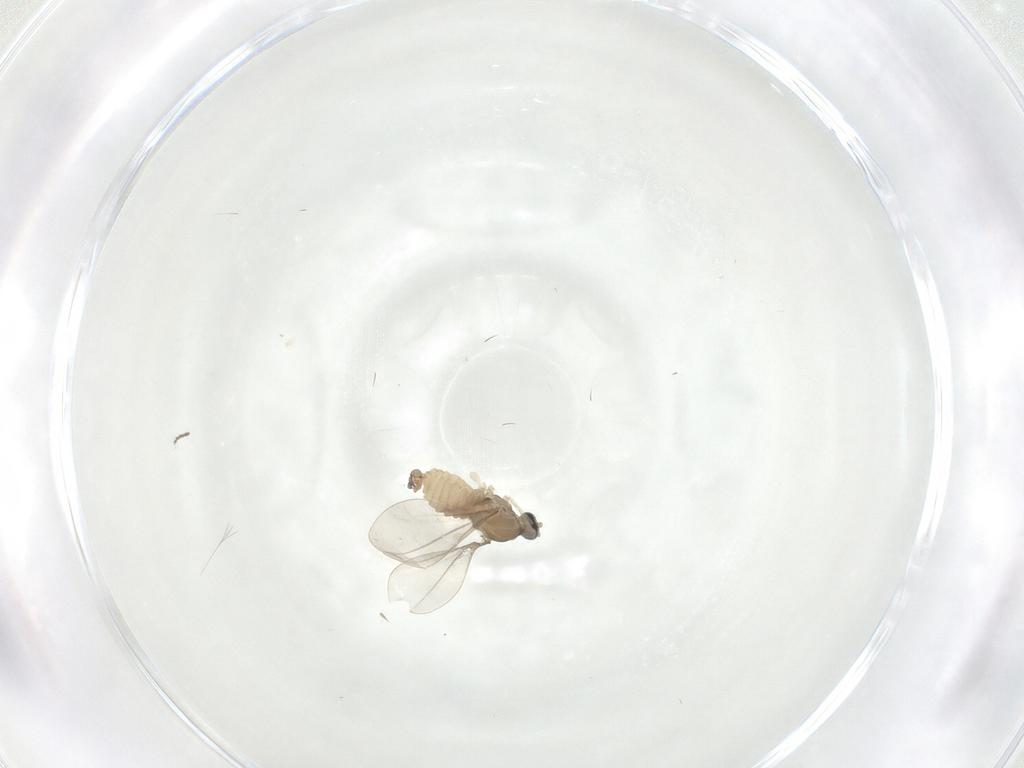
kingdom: Animalia
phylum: Arthropoda
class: Insecta
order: Diptera
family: Cecidomyiidae
